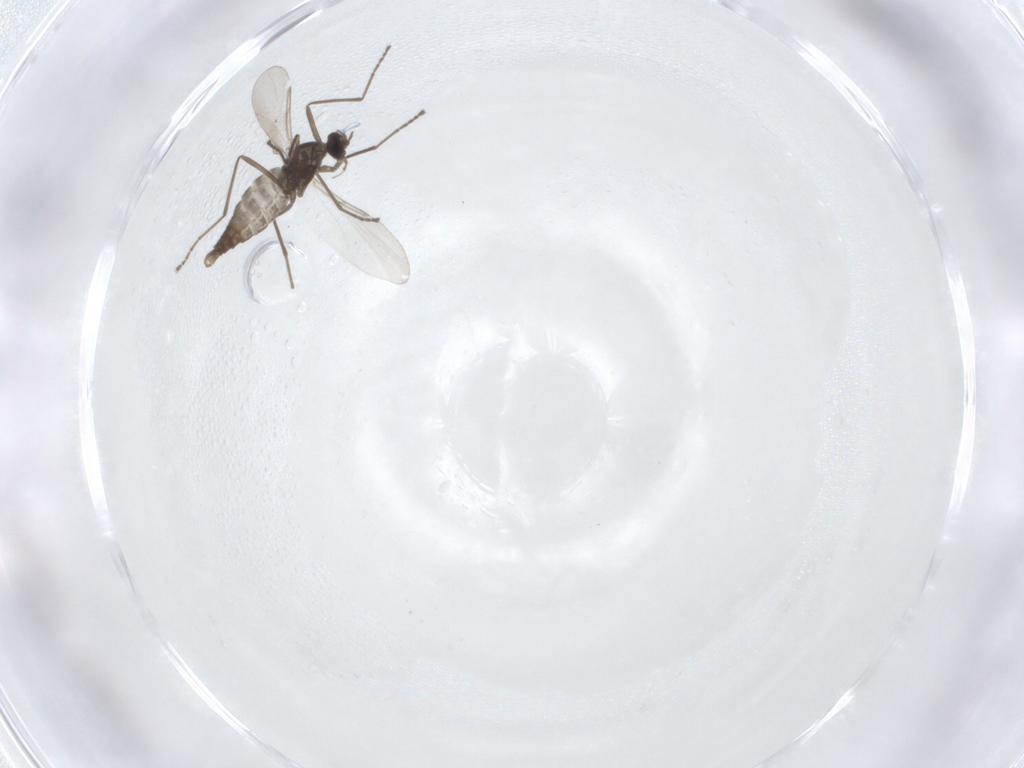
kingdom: Animalia
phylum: Arthropoda
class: Insecta
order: Diptera
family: Cecidomyiidae
